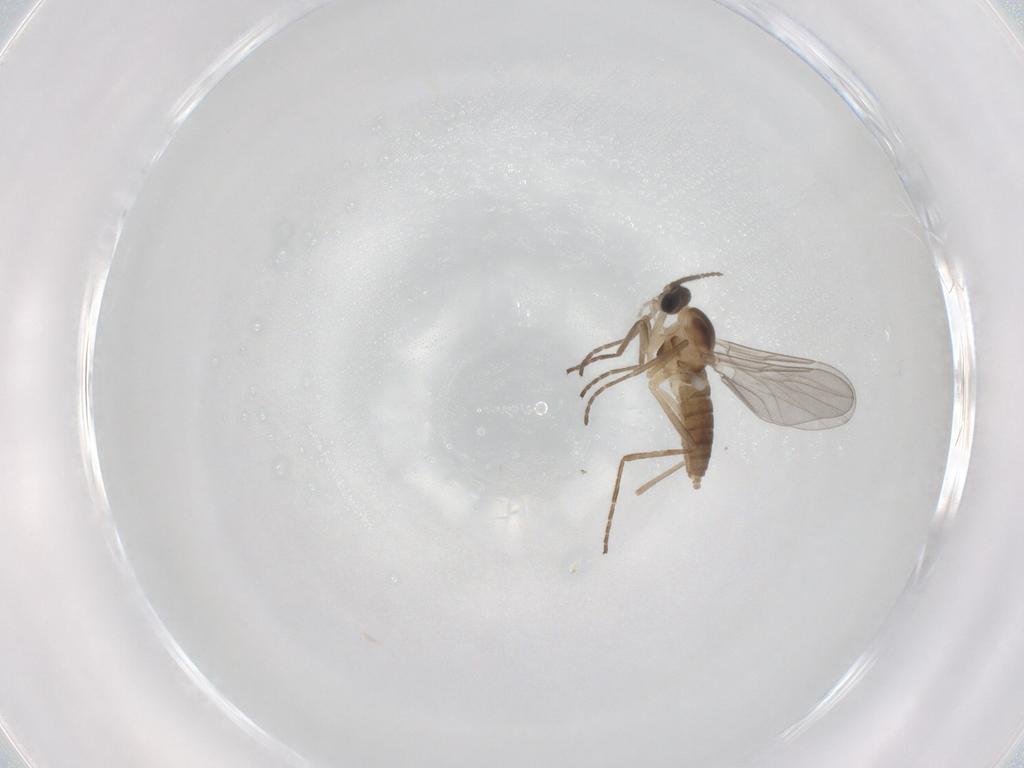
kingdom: Animalia
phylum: Arthropoda
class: Insecta
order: Diptera
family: Cecidomyiidae
